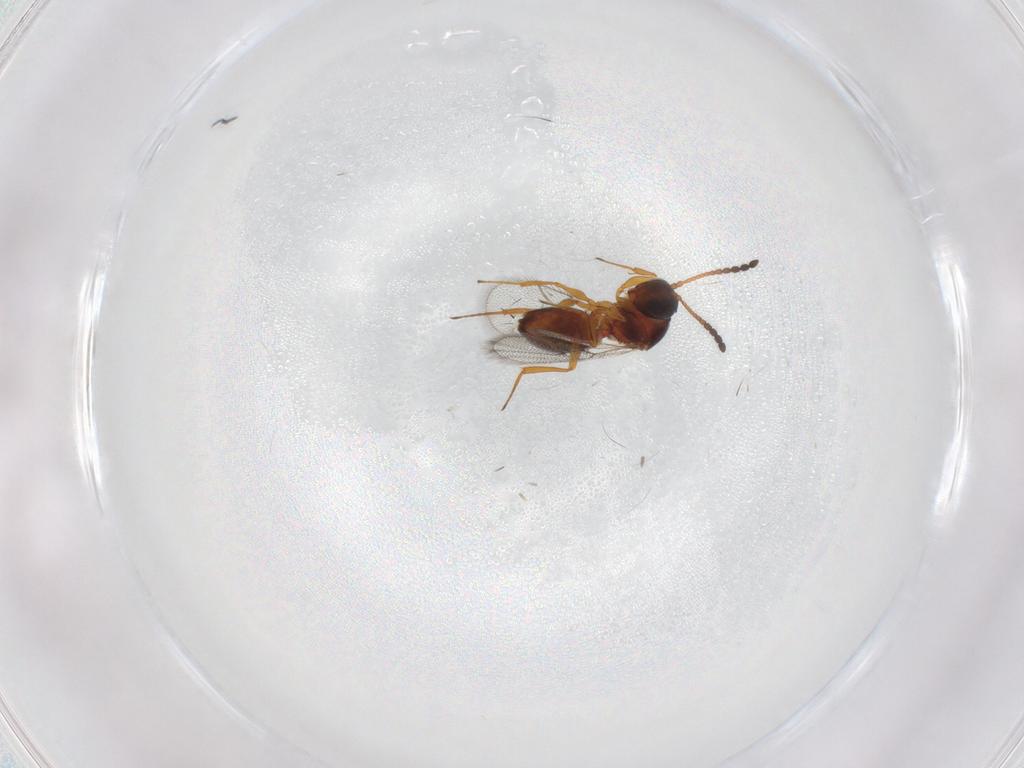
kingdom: Animalia
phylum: Arthropoda
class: Insecta
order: Hymenoptera
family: Figitidae
